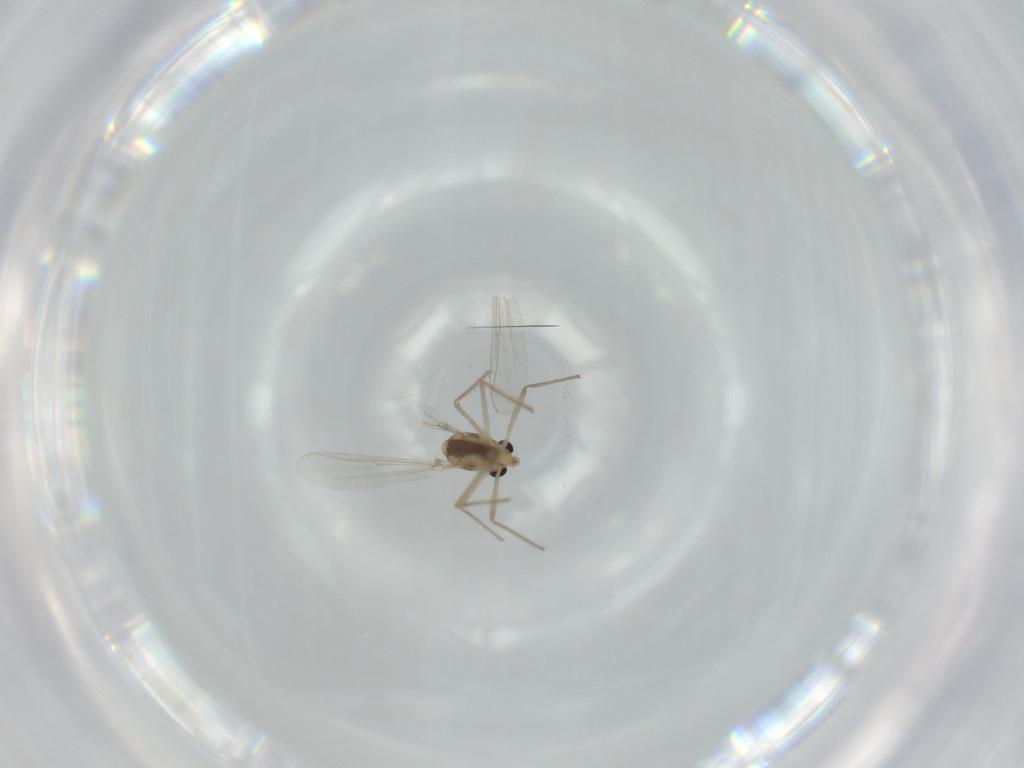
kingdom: Animalia
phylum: Arthropoda
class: Insecta
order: Diptera
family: Chironomidae
